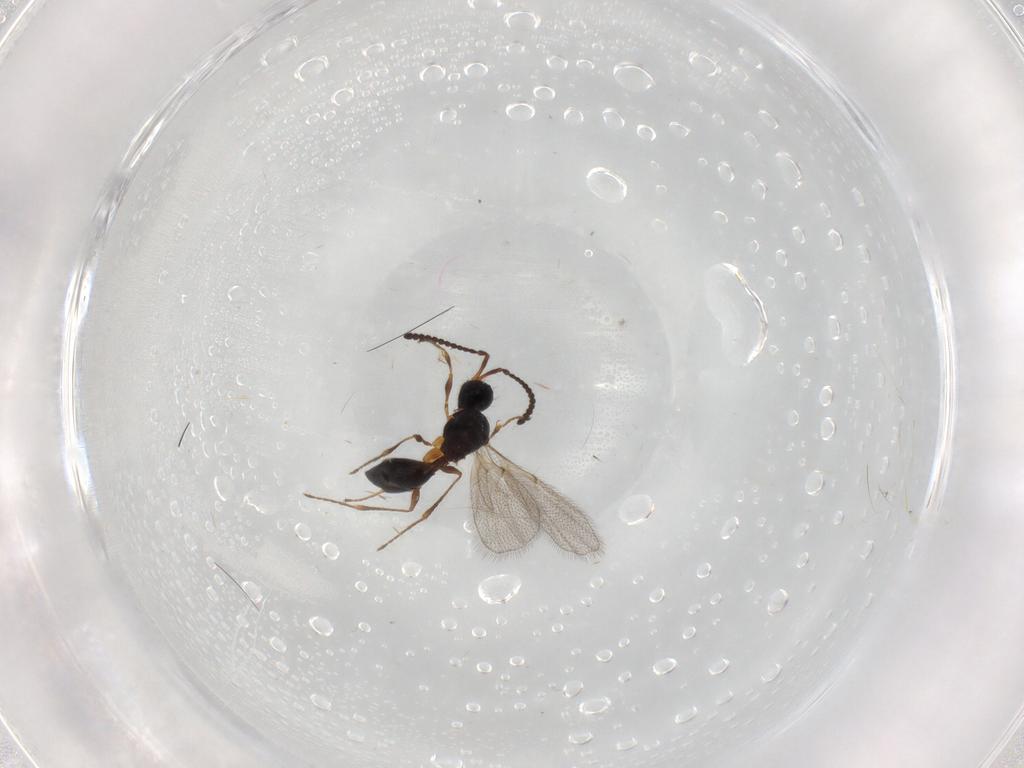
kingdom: Animalia
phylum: Arthropoda
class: Insecta
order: Hymenoptera
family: Diapriidae
